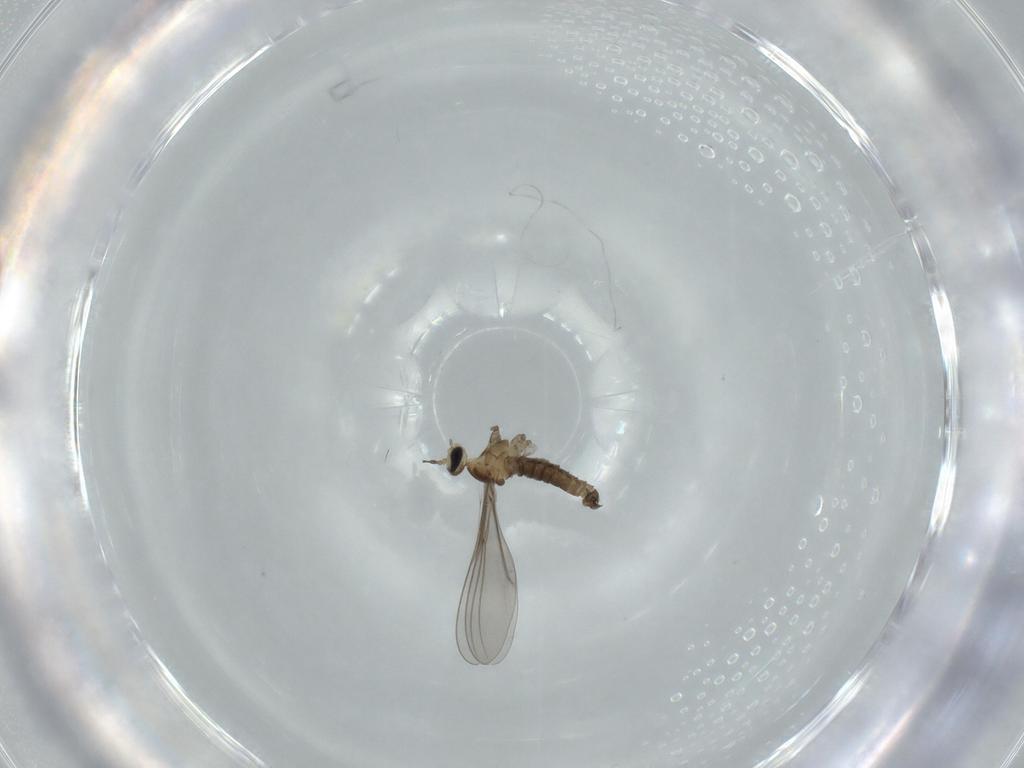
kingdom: Animalia
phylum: Arthropoda
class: Insecta
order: Diptera
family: Cecidomyiidae
